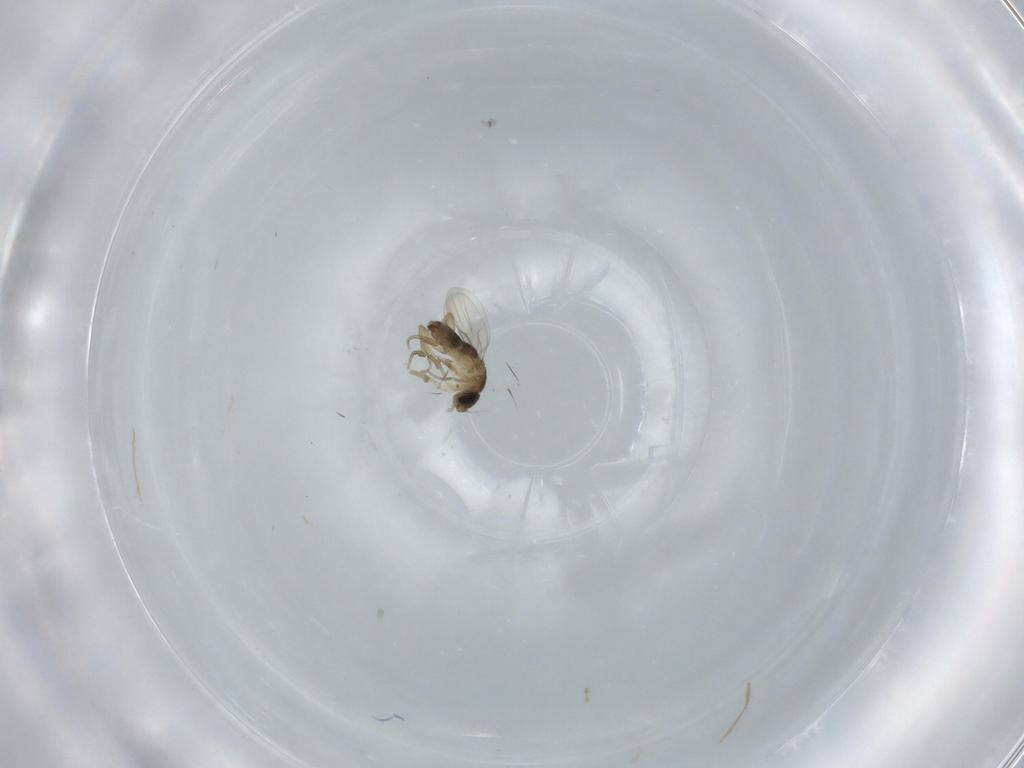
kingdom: Animalia
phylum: Arthropoda
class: Insecta
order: Diptera
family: Phoridae
